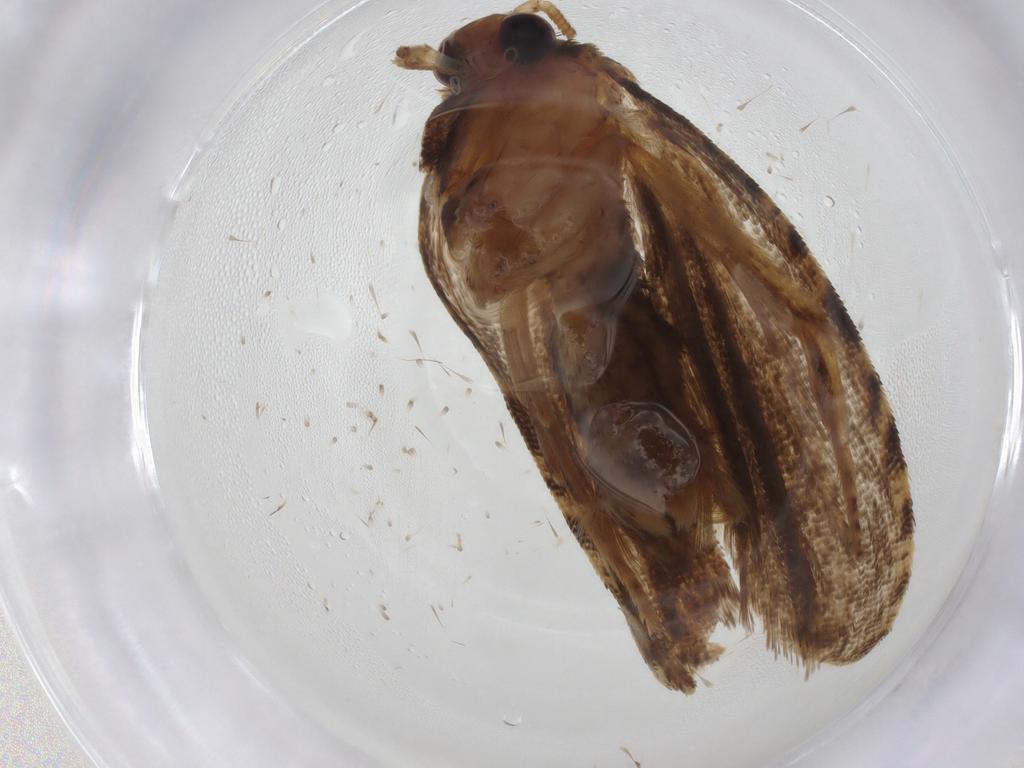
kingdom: Animalia
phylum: Arthropoda
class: Insecta
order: Lepidoptera
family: Tortricidae
